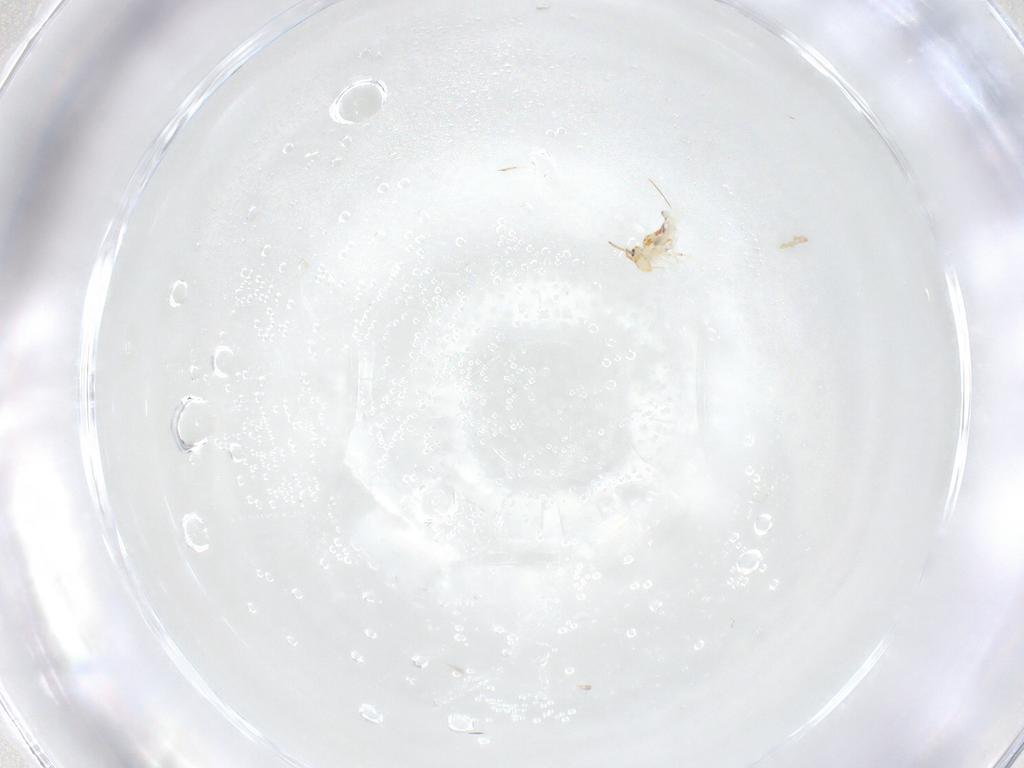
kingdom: Animalia
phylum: Arthropoda
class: Collembola
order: Symphypleona
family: Bourletiellidae
